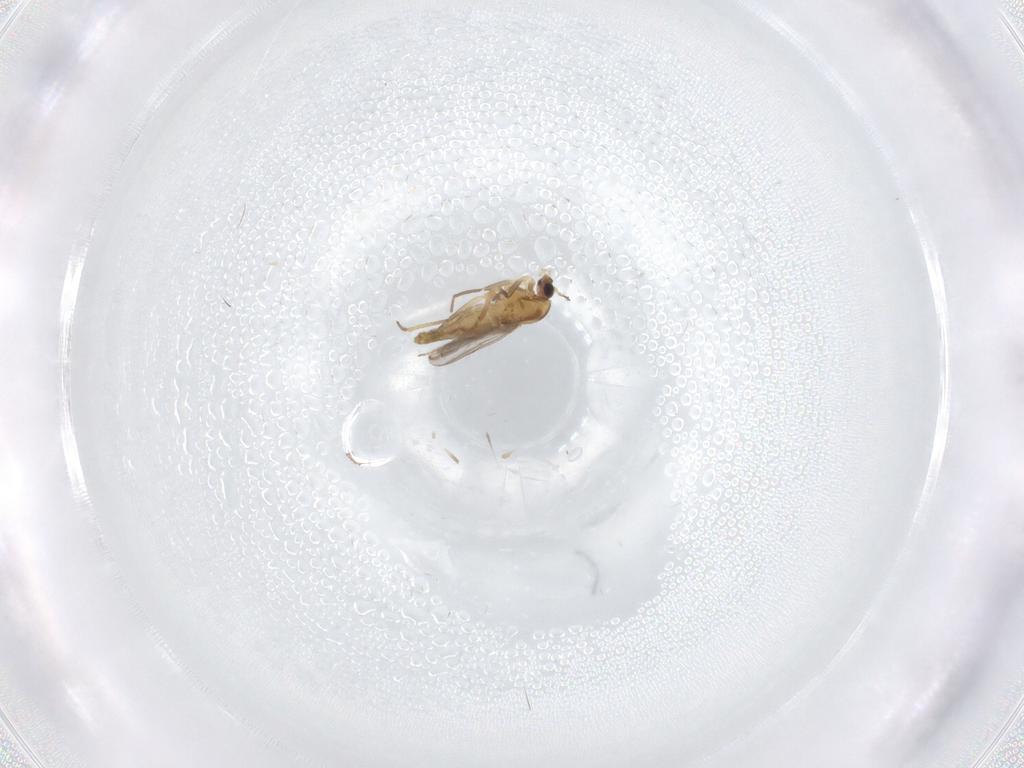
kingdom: Animalia
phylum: Arthropoda
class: Insecta
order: Diptera
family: Chironomidae
